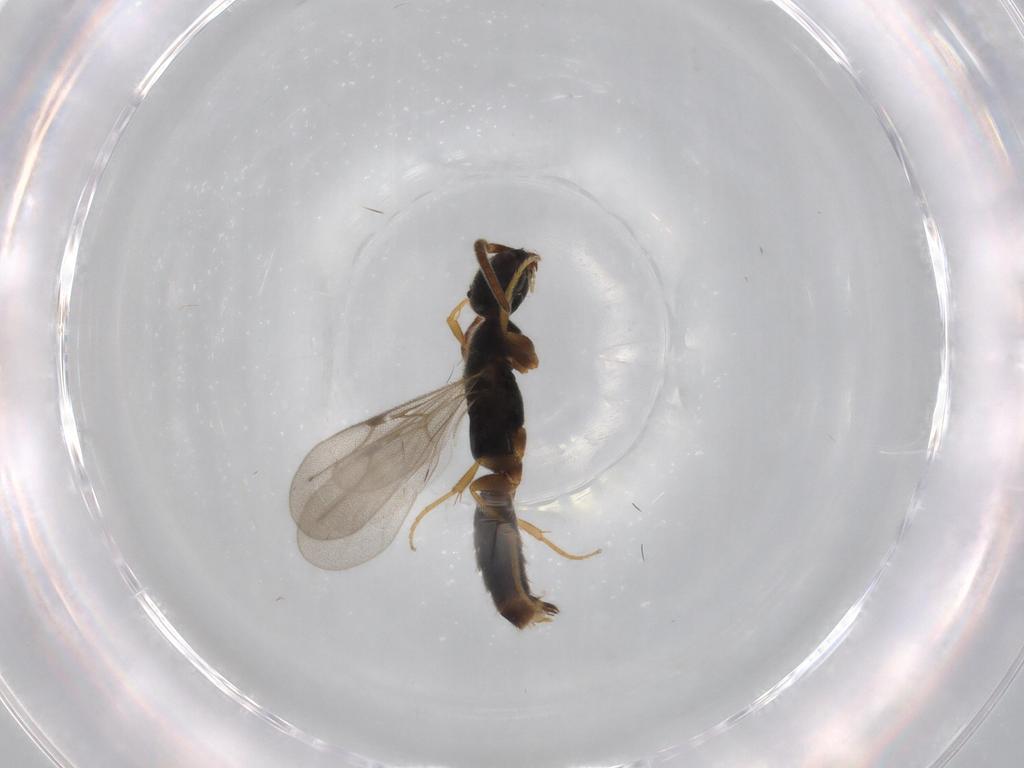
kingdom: Animalia
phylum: Arthropoda
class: Insecta
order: Hymenoptera
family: Bethylidae
